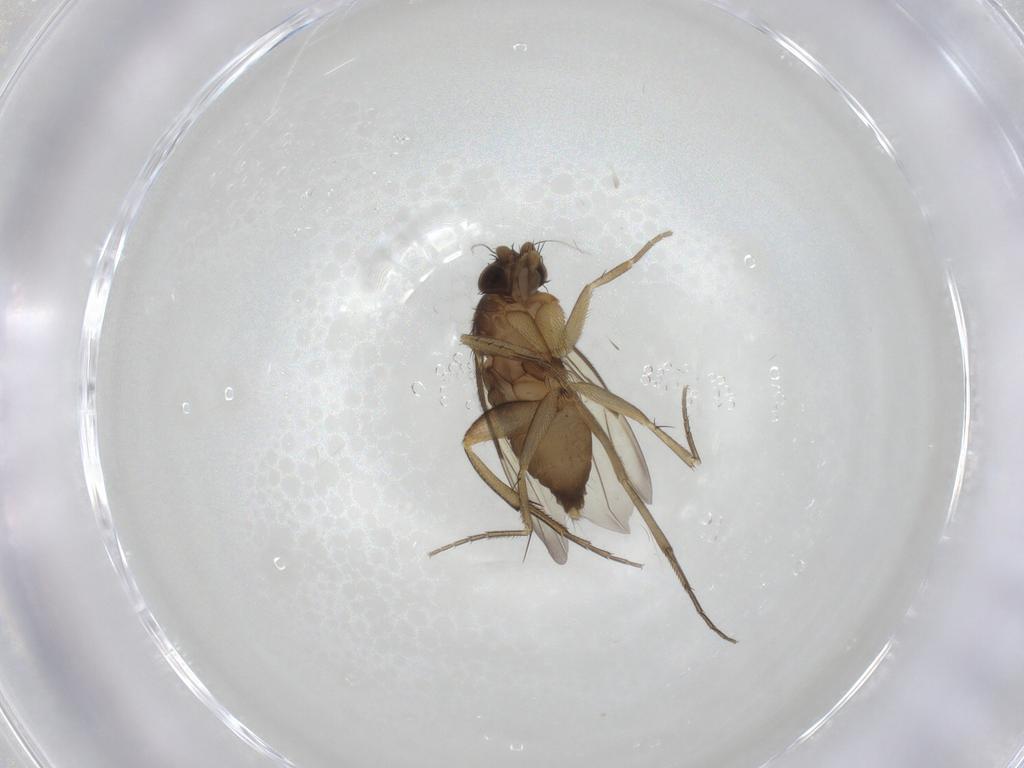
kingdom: Animalia
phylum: Arthropoda
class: Insecta
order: Diptera
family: Phoridae
